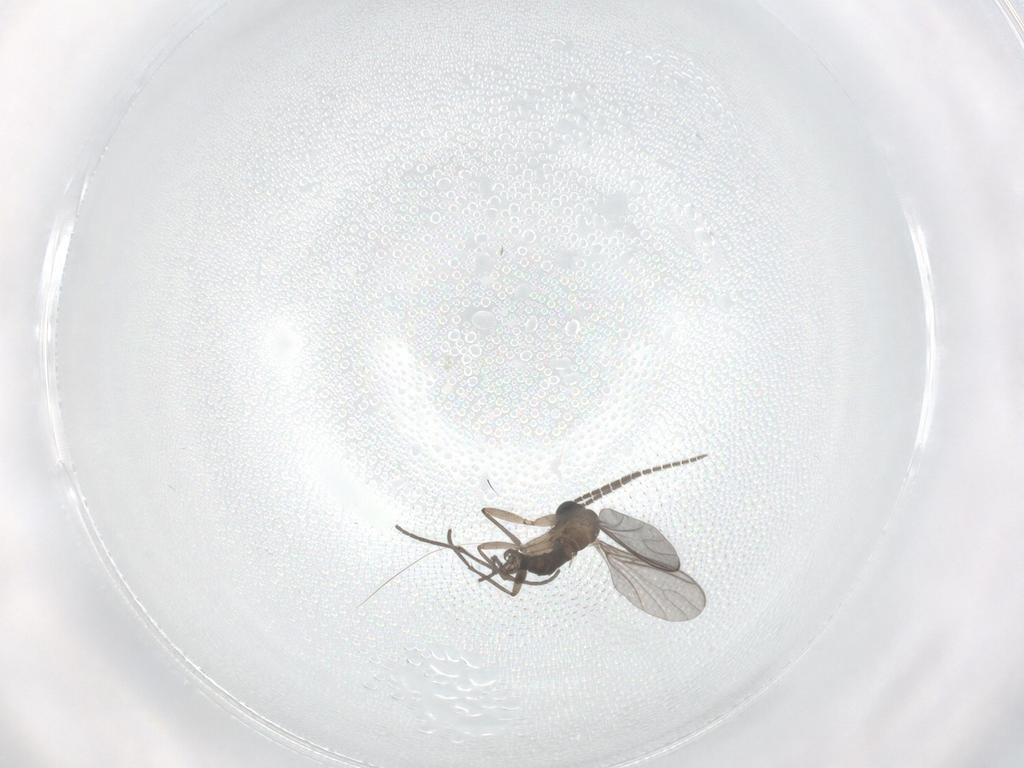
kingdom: Animalia
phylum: Arthropoda
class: Insecta
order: Diptera
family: Sciaridae
